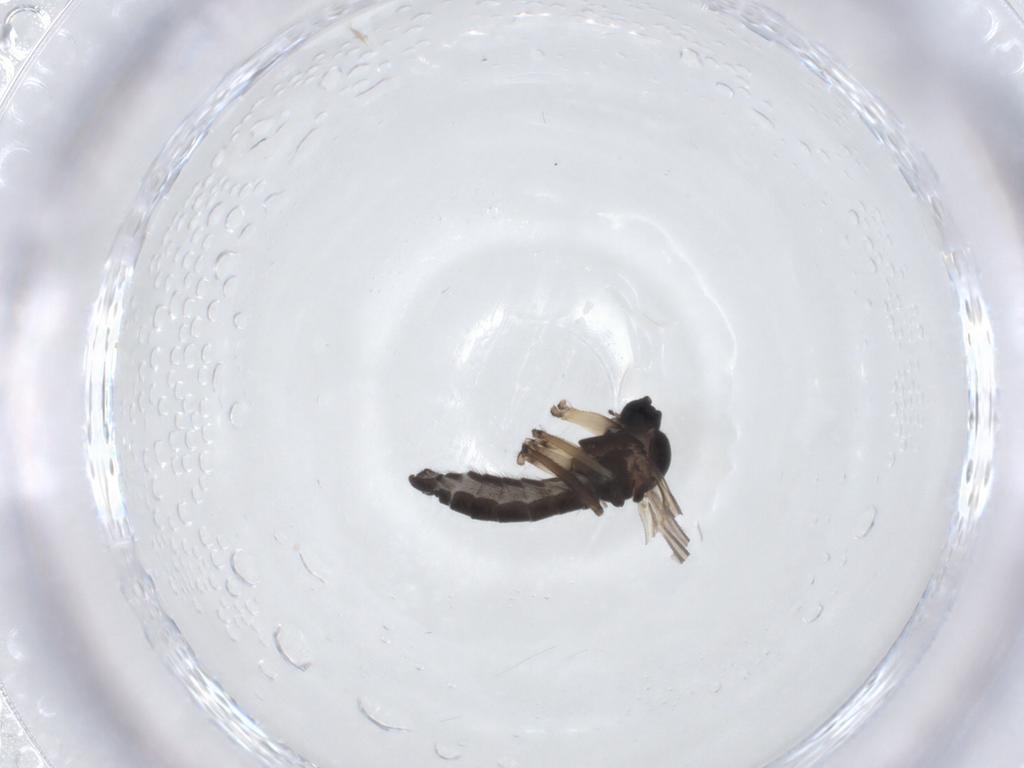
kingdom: Animalia
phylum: Arthropoda
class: Insecta
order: Diptera
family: Sciaridae
